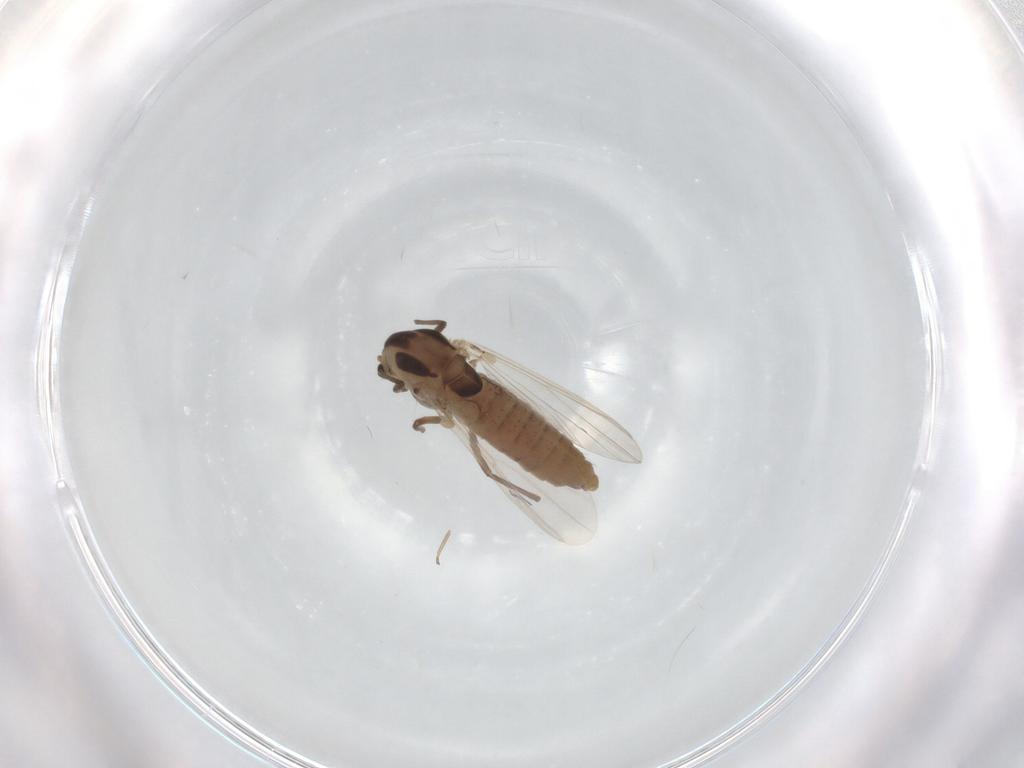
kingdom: Animalia
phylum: Arthropoda
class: Insecta
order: Diptera
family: Chironomidae
